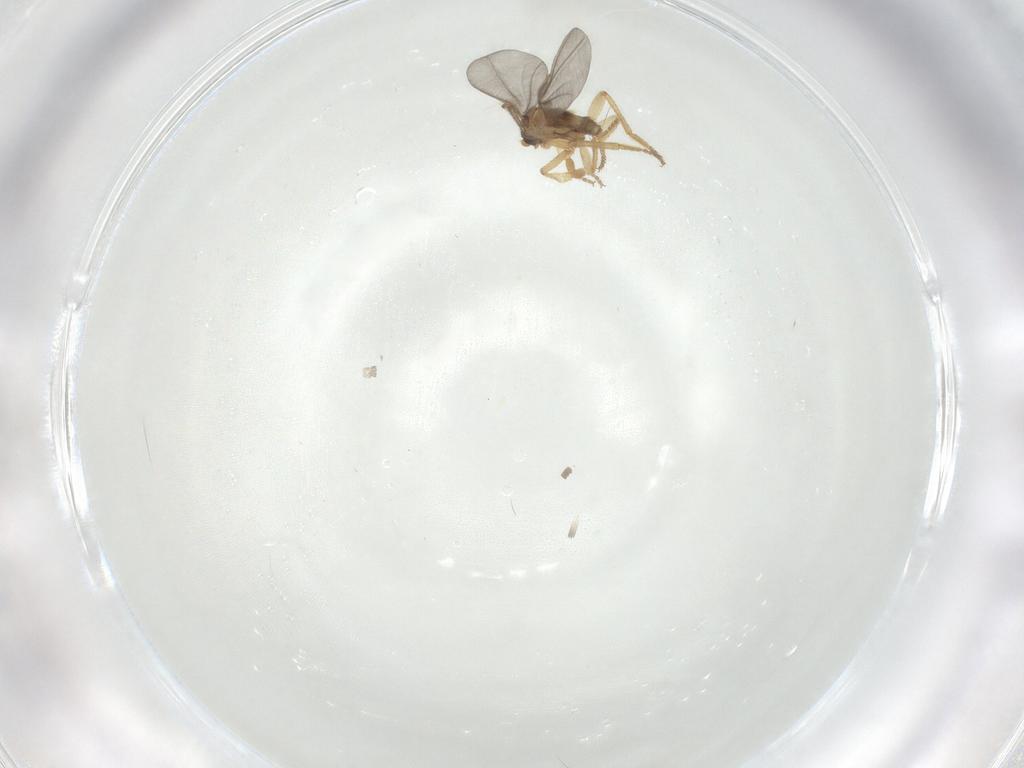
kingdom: Animalia
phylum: Arthropoda
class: Insecta
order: Diptera
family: Phoridae
